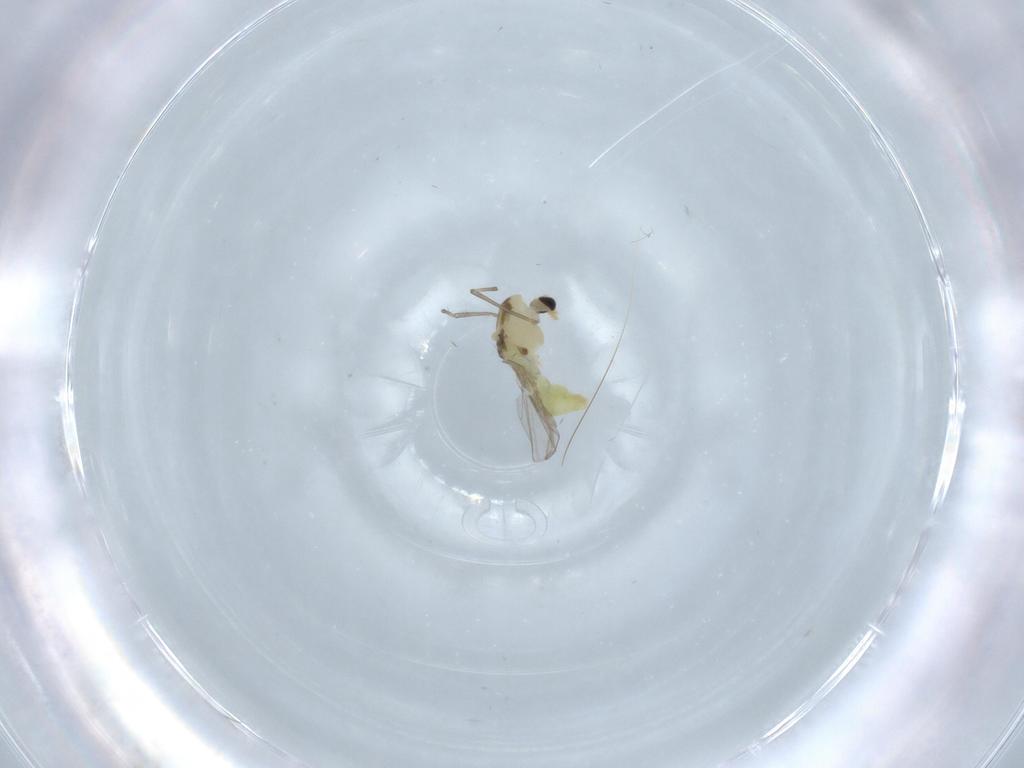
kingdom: Animalia
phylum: Arthropoda
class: Insecta
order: Diptera
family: Chironomidae
